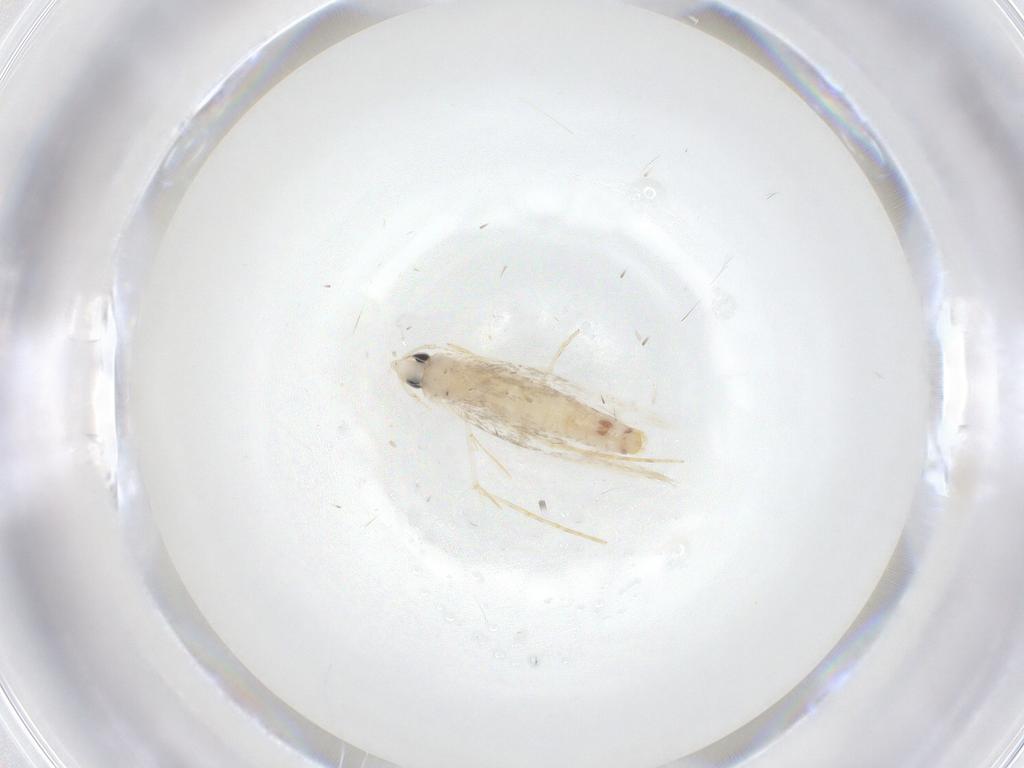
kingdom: Animalia
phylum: Arthropoda
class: Insecta
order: Lepidoptera
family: Tineidae
